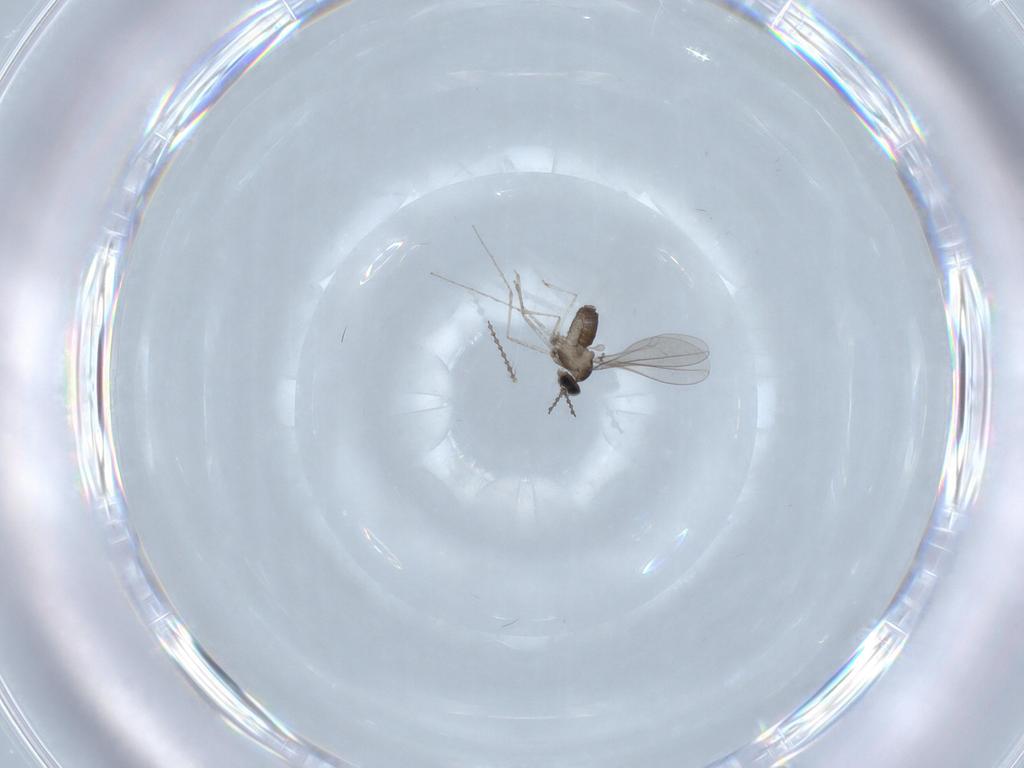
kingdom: Animalia
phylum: Arthropoda
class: Insecta
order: Diptera
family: Cecidomyiidae
